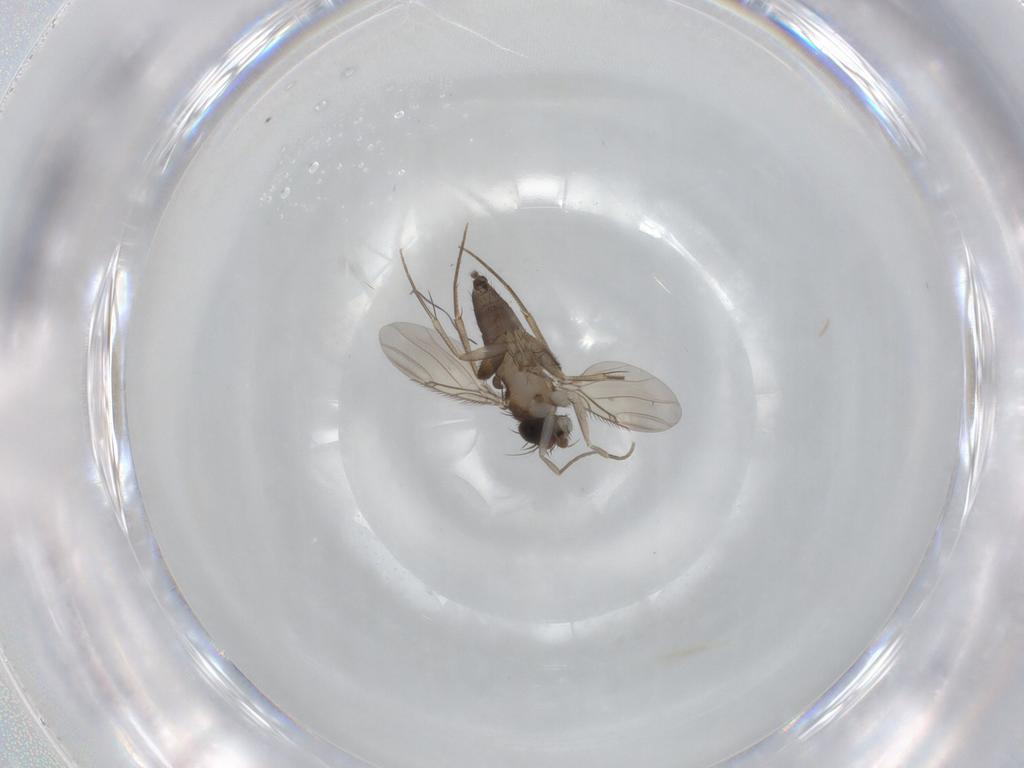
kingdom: Animalia
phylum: Arthropoda
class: Insecta
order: Diptera
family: Phoridae
